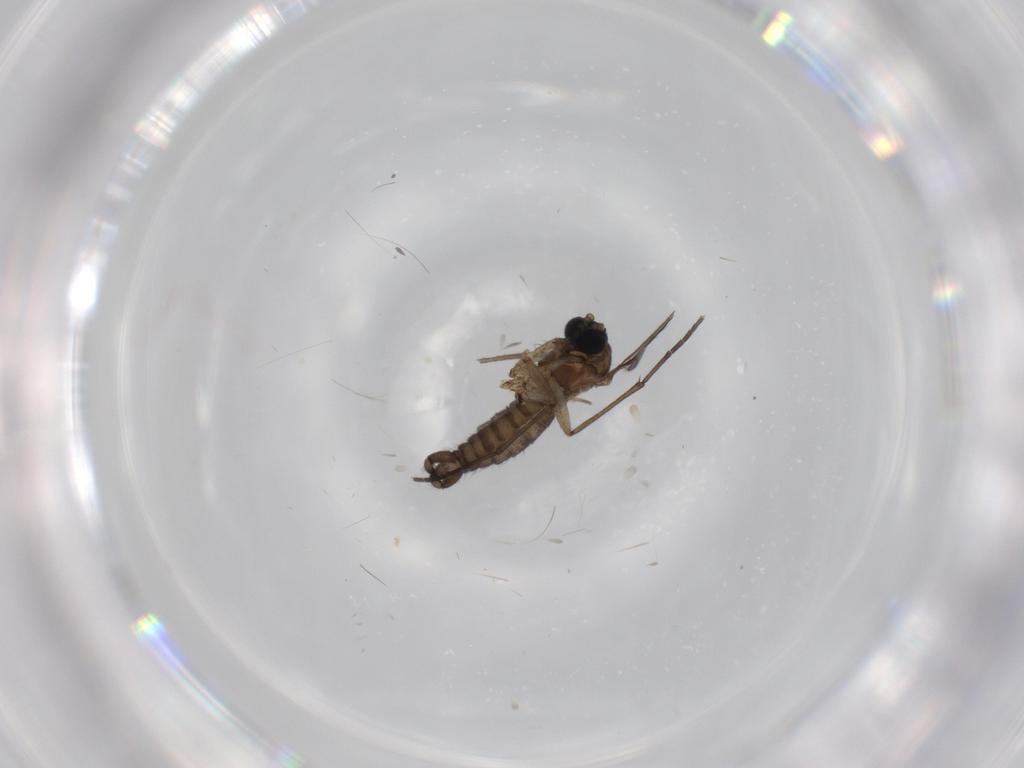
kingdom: Animalia
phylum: Arthropoda
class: Insecta
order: Diptera
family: Sciaridae
